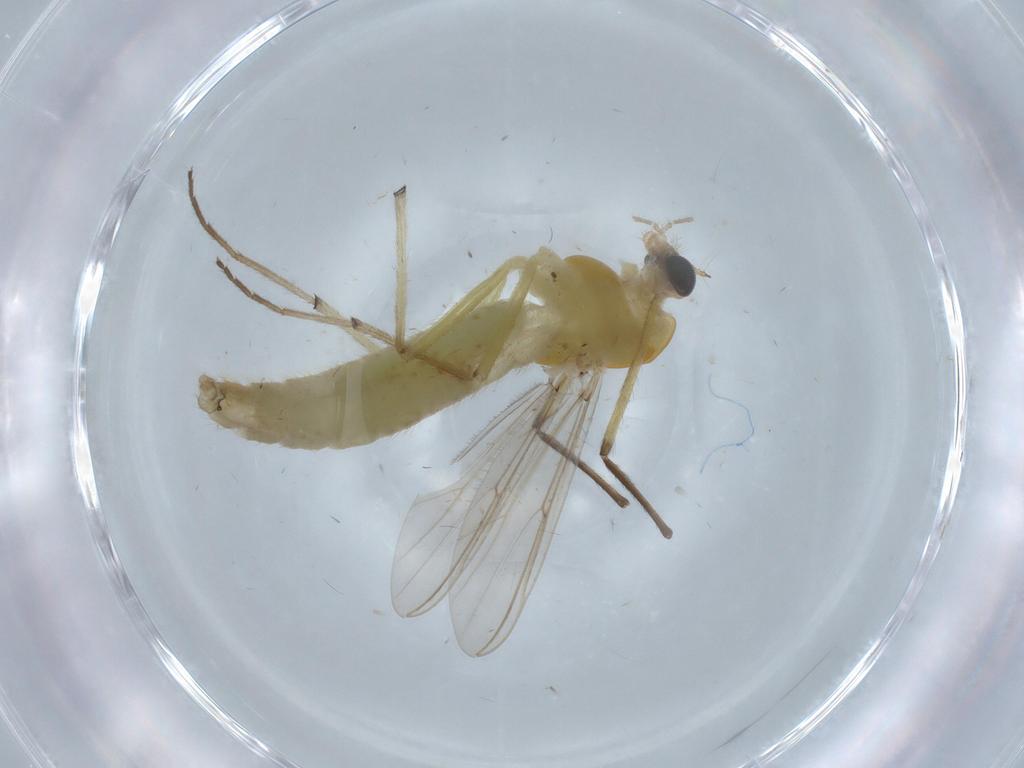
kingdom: Animalia
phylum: Arthropoda
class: Insecta
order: Diptera
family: Chironomidae
